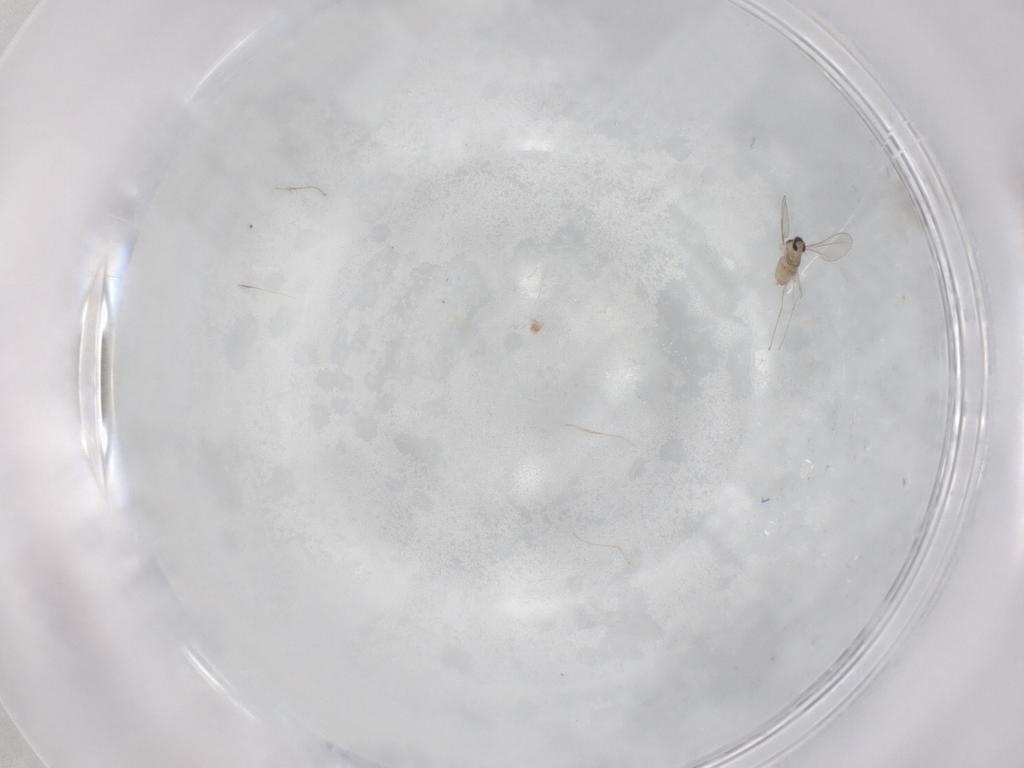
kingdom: Animalia
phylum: Arthropoda
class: Insecta
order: Diptera
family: Cecidomyiidae
